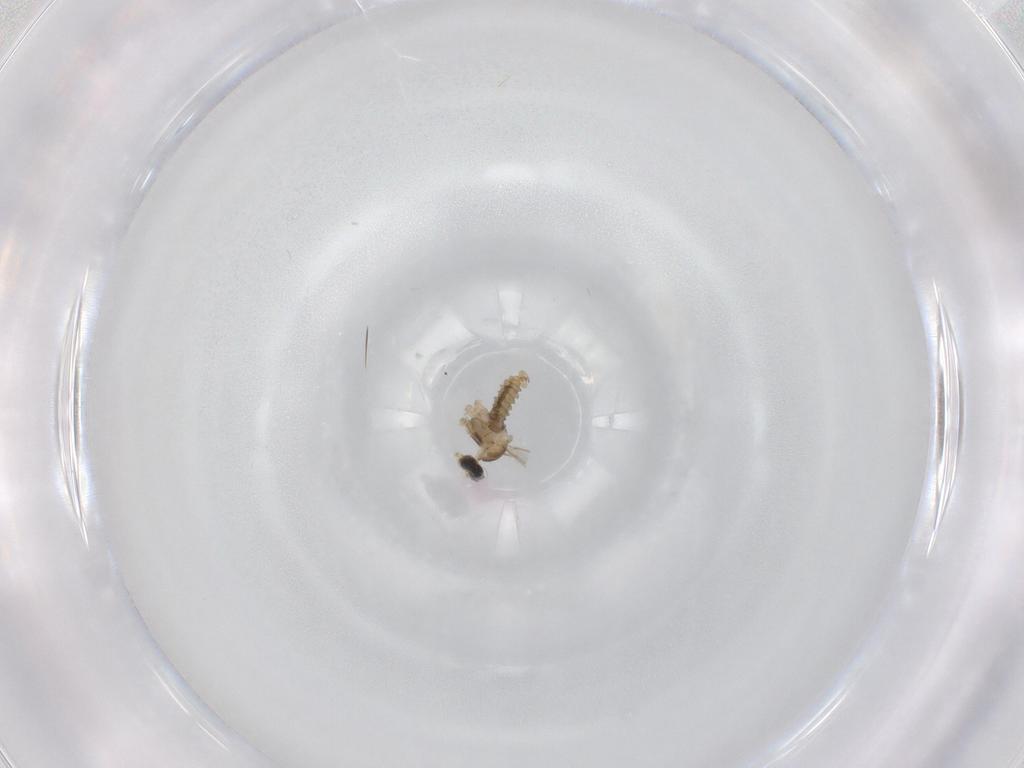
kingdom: Animalia
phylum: Arthropoda
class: Insecta
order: Diptera
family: Cecidomyiidae
